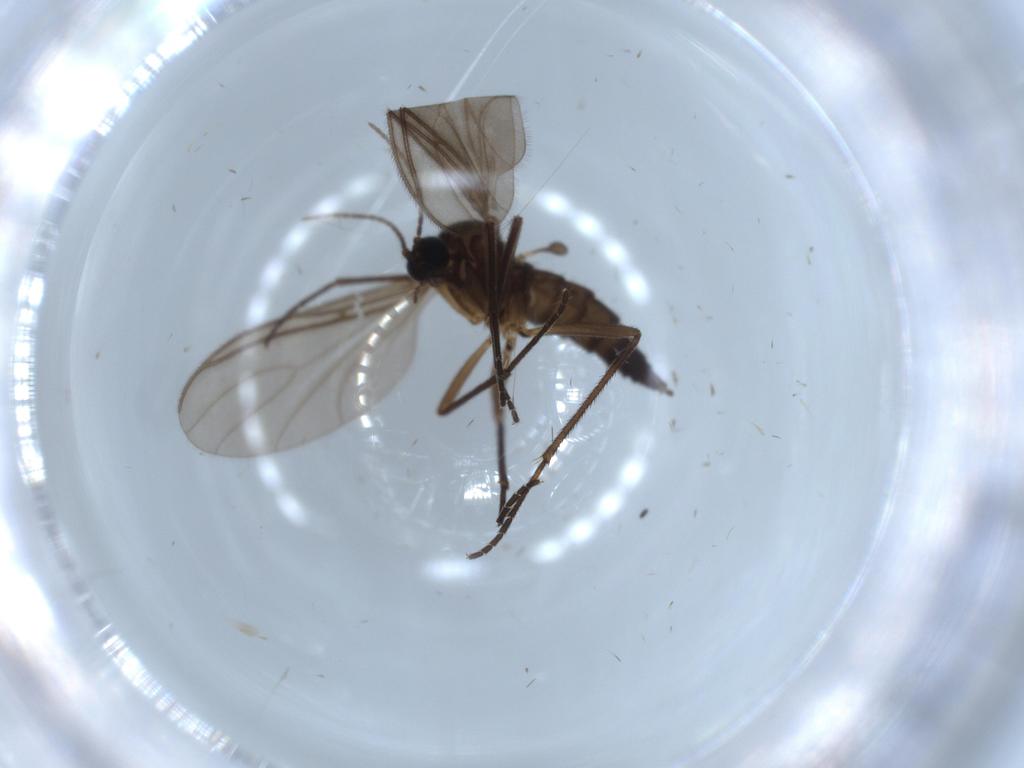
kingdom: Animalia
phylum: Arthropoda
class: Insecta
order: Diptera
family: Sciaridae
